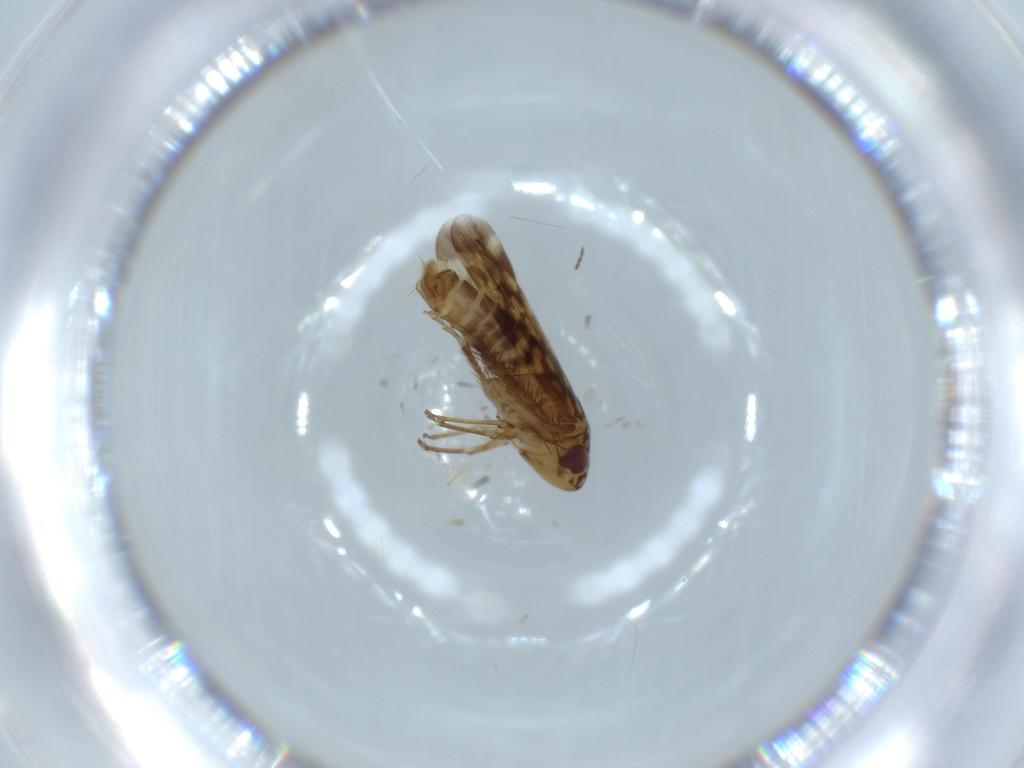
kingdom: Animalia
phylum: Arthropoda
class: Insecta
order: Hemiptera
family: Cicadellidae
